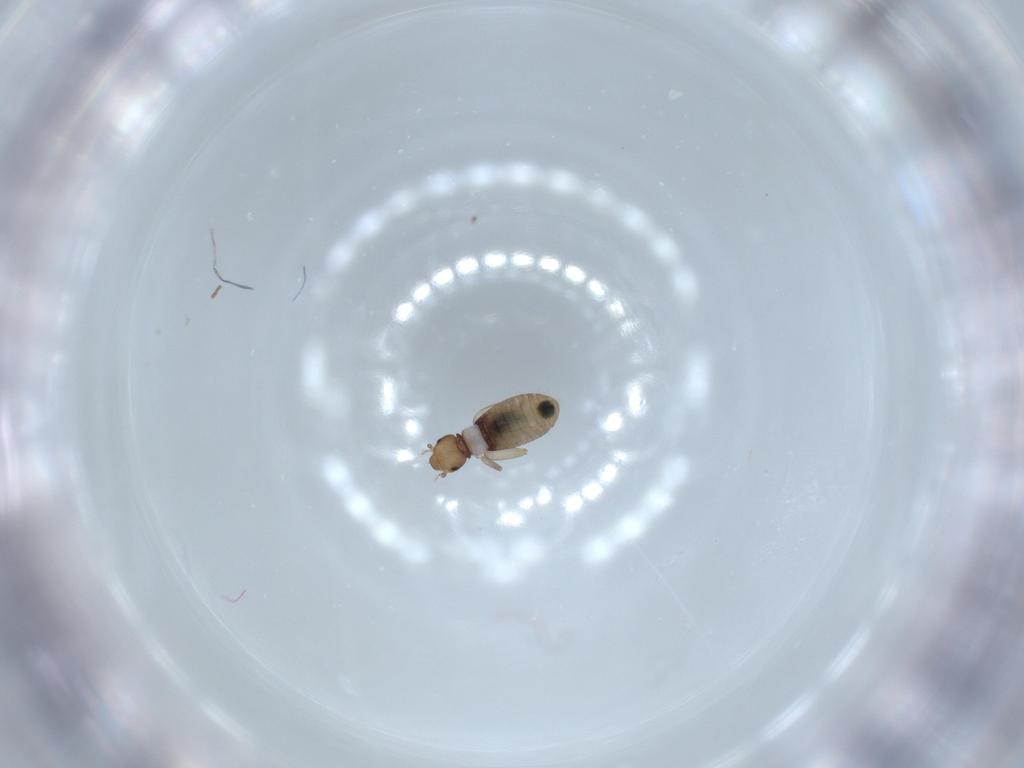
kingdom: Animalia
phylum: Arthropoda
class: Insecta
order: Psocodea
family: Liposcelididae
